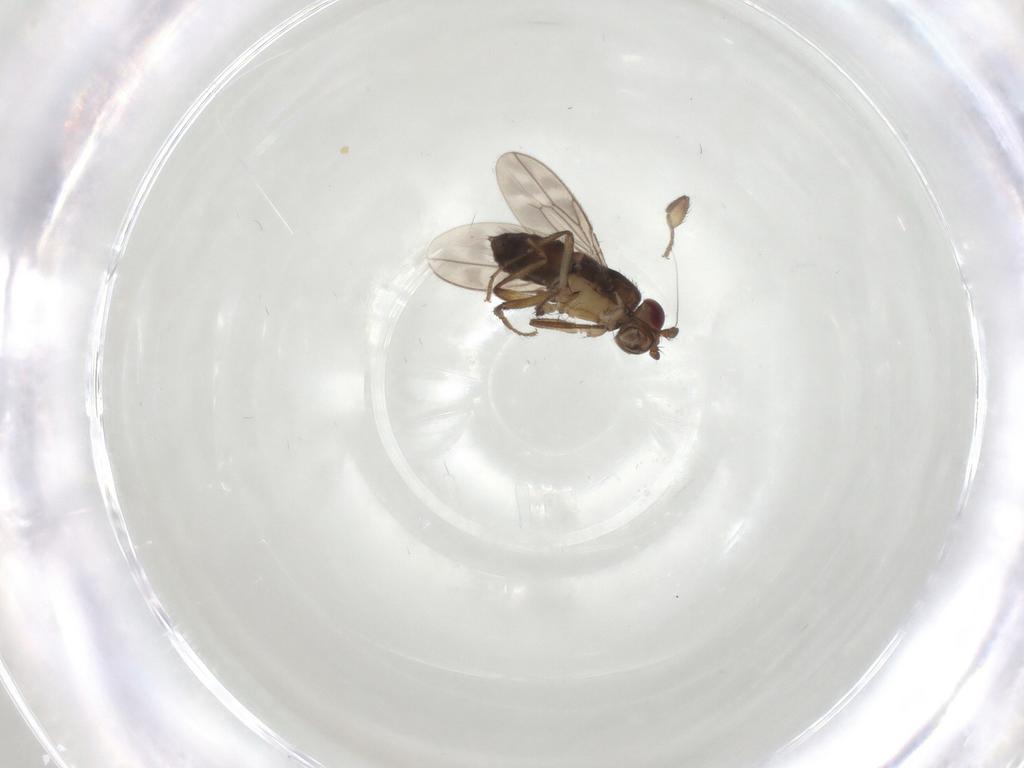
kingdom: Animalia
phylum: Arthropoda
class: Insecta
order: Diptera
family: Sphaeroceridae
